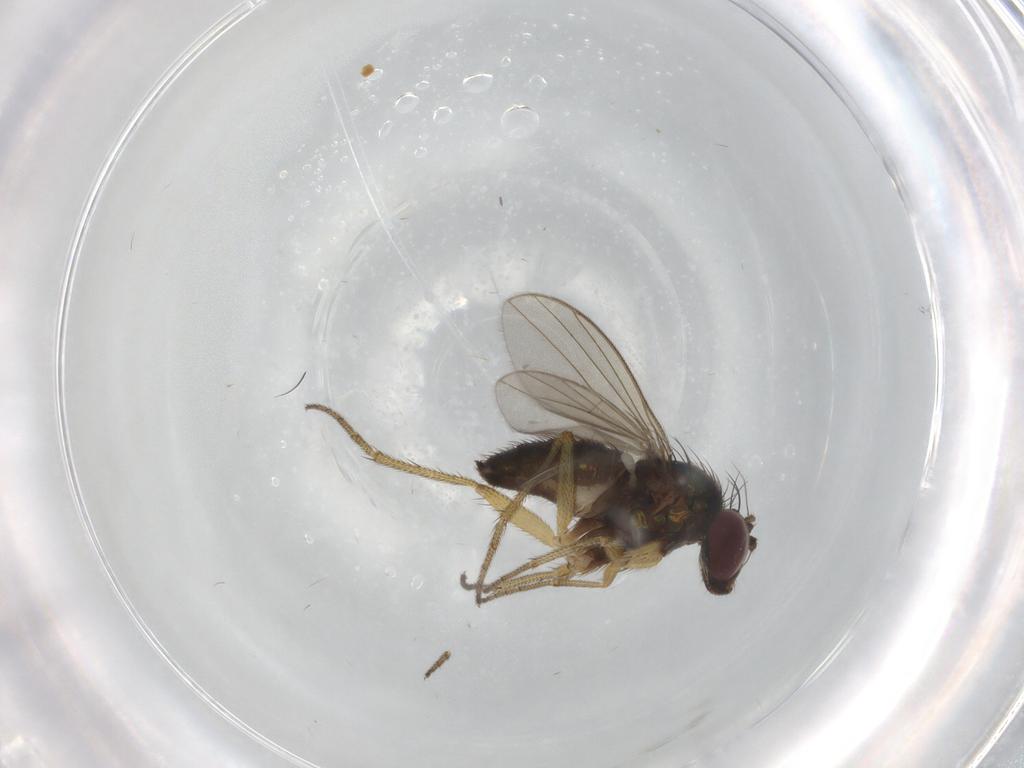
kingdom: Animalia
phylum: Arthropoda
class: Insecta
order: Diptera
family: Dolichopodidae
